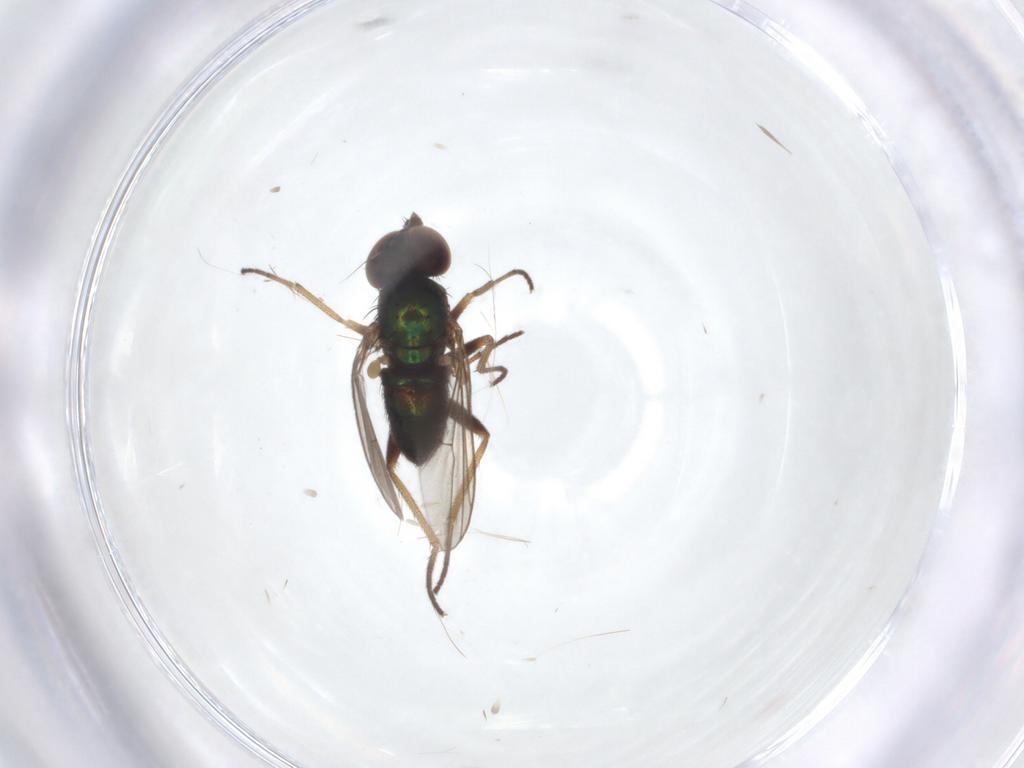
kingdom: Animalia
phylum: Arthropoda
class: Insecta
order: Diptera
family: Dolichopodidae
